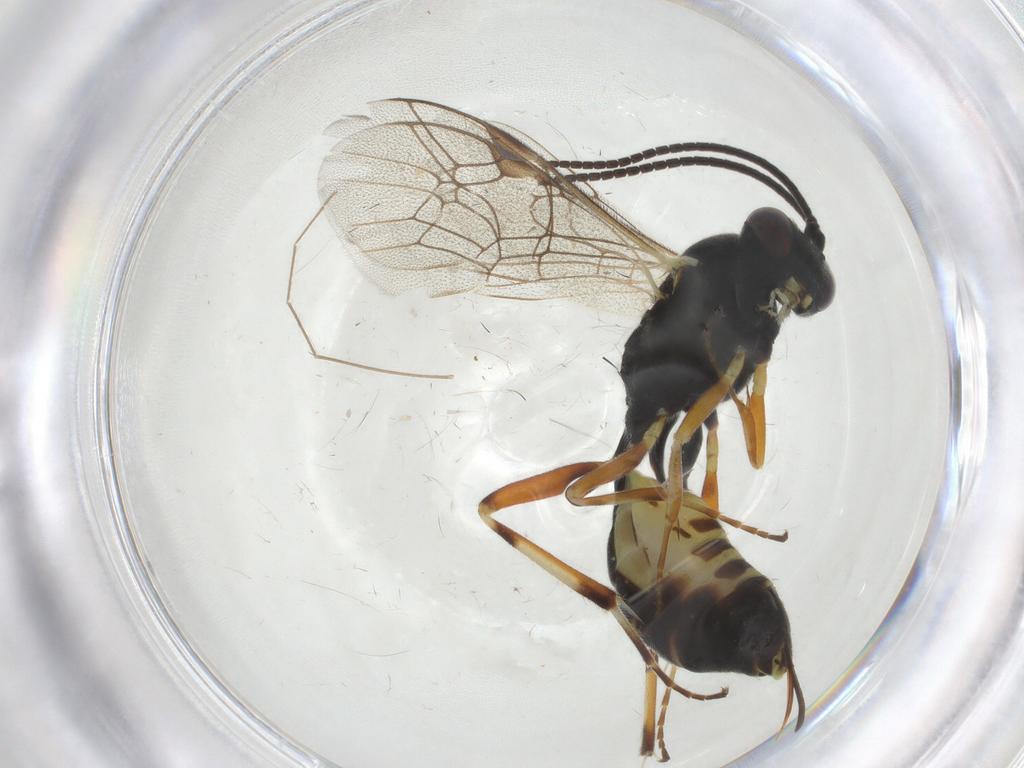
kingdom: Animalia
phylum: Arthropoda
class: Insecta
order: Hymenoptera
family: Ichneumonidae
